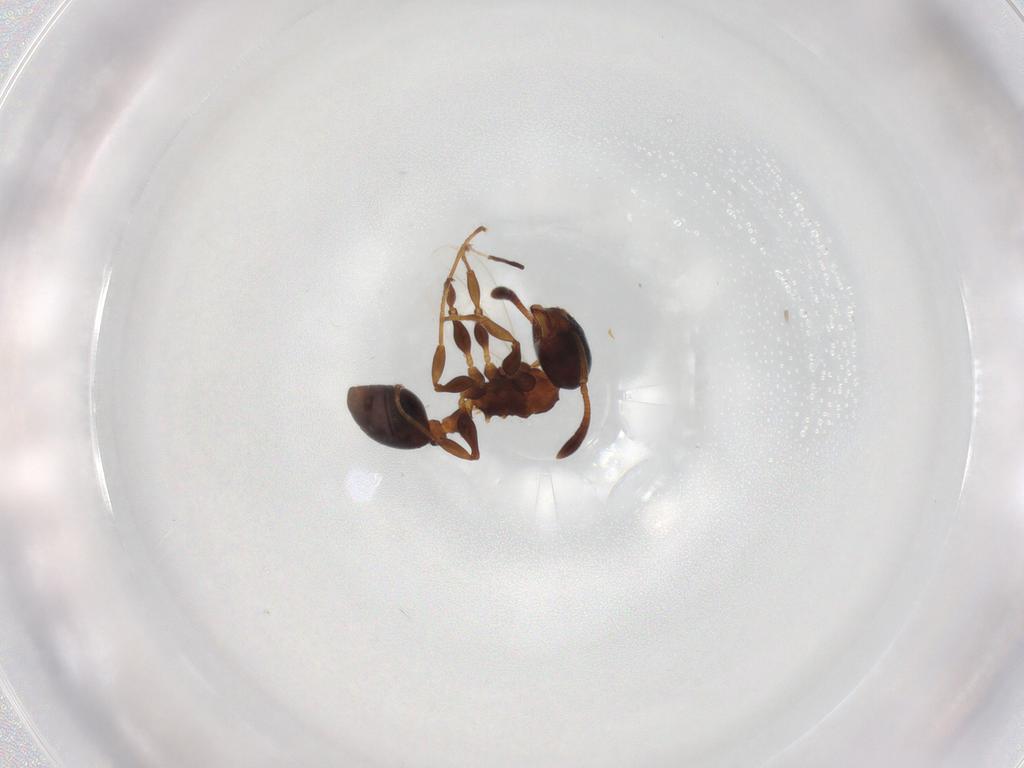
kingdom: Animalia
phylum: Arthropoda
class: Insecta
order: Hymenoptera
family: Formicidae
